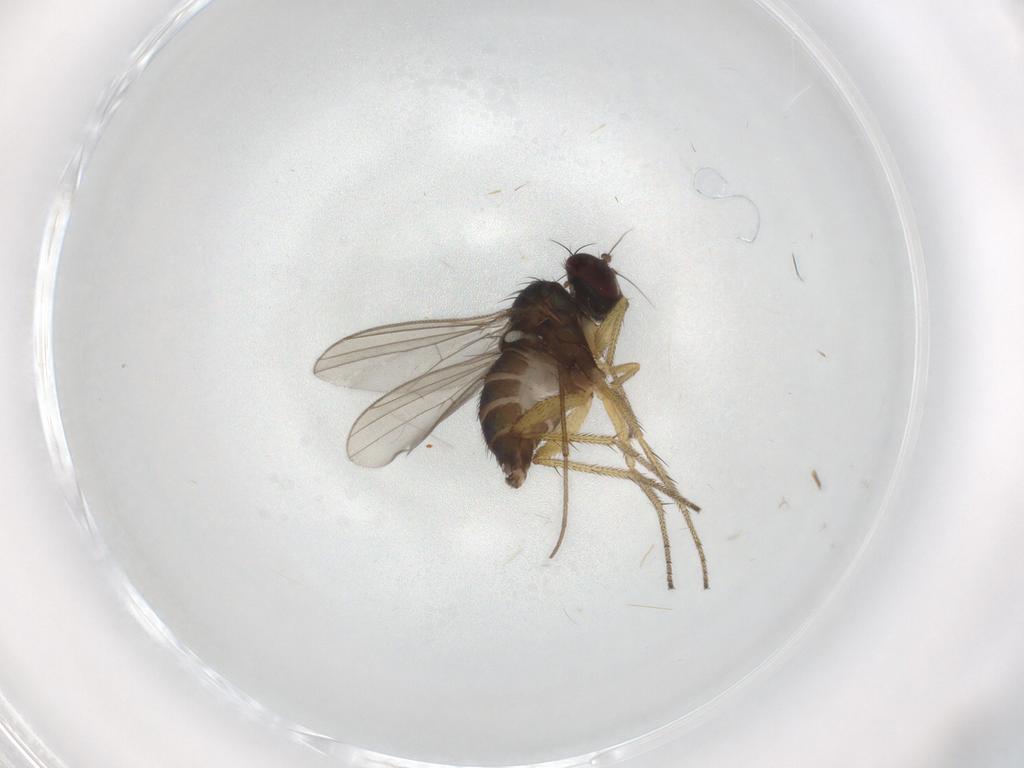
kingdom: Animalia
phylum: Arthropoda
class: Insecta
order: Diptera
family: Dolichopodidae
